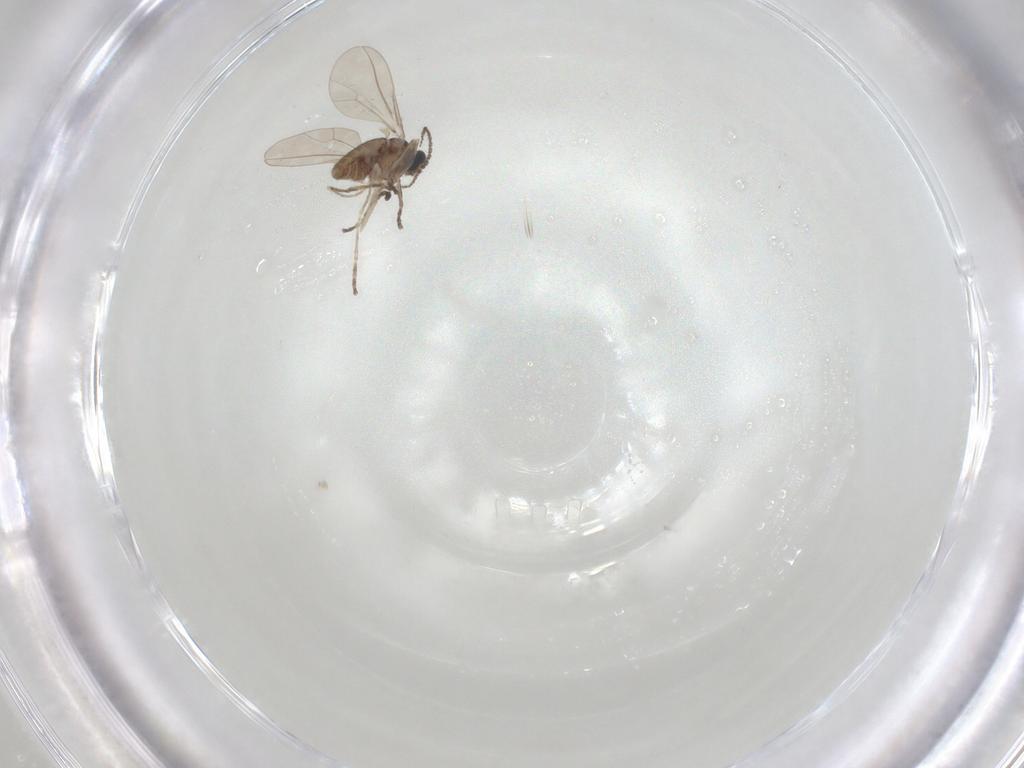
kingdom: Animalia
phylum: Arthropoda
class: Insecta
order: Diptera
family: Cecidomyiidae
